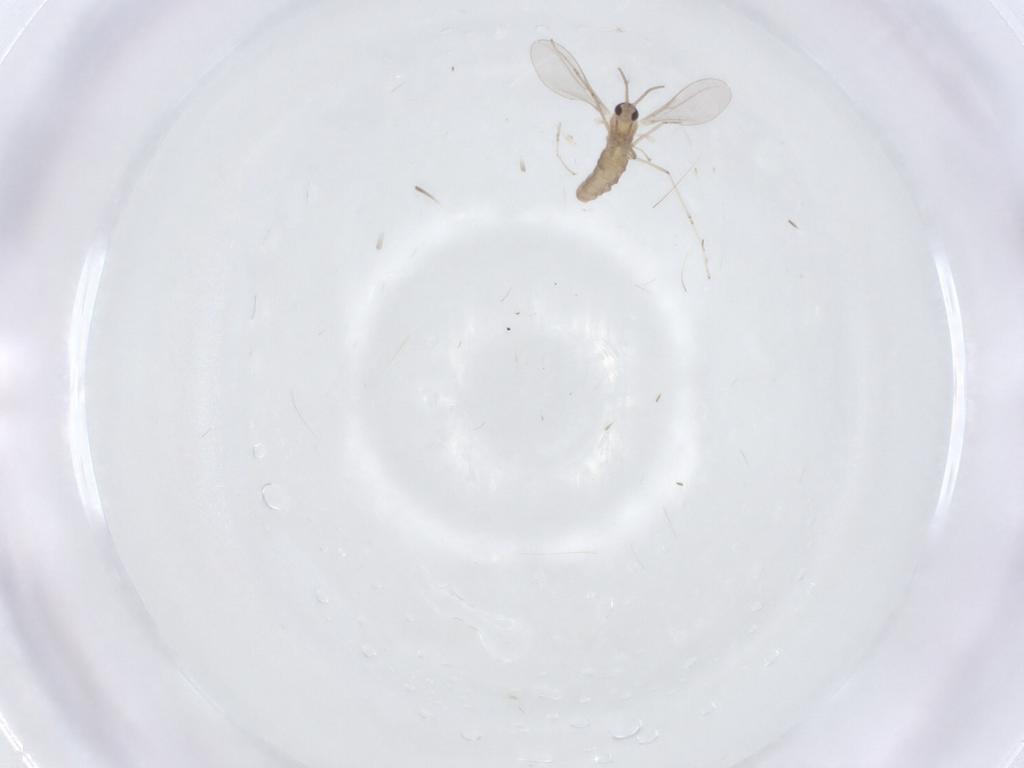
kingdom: Animalia
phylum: Arthropoda
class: Insecta
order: Diptera
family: Cecidomyiidae
